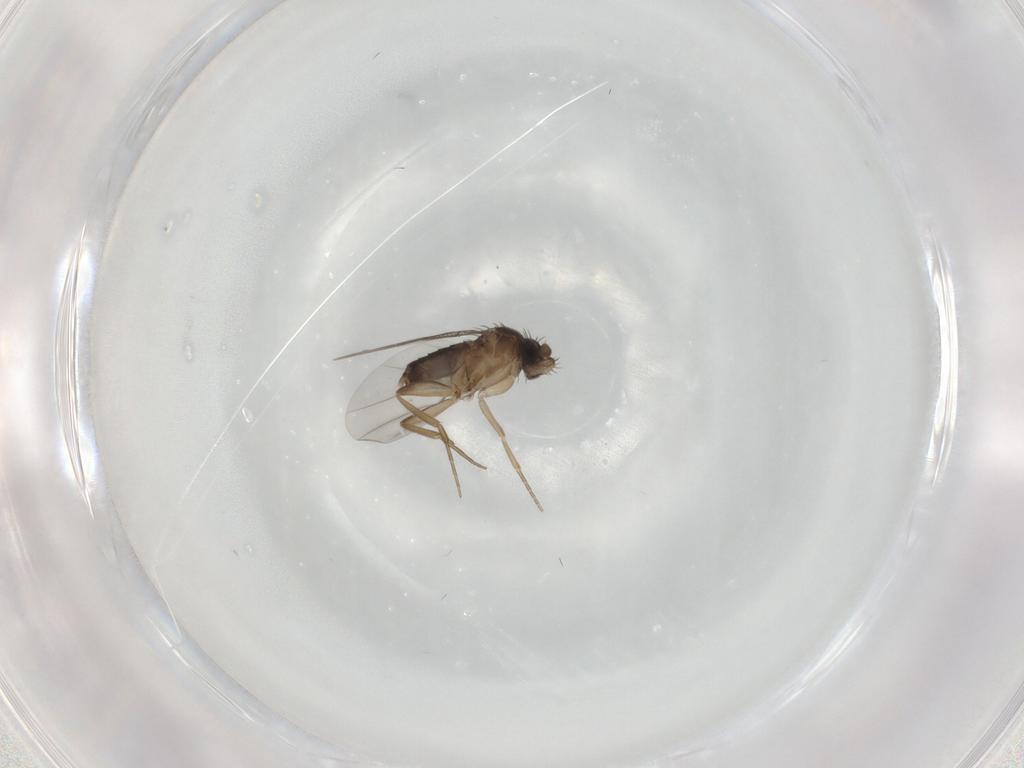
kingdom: Animalia
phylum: Arthropoda
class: Insecta
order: Diptera
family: Phoridae
